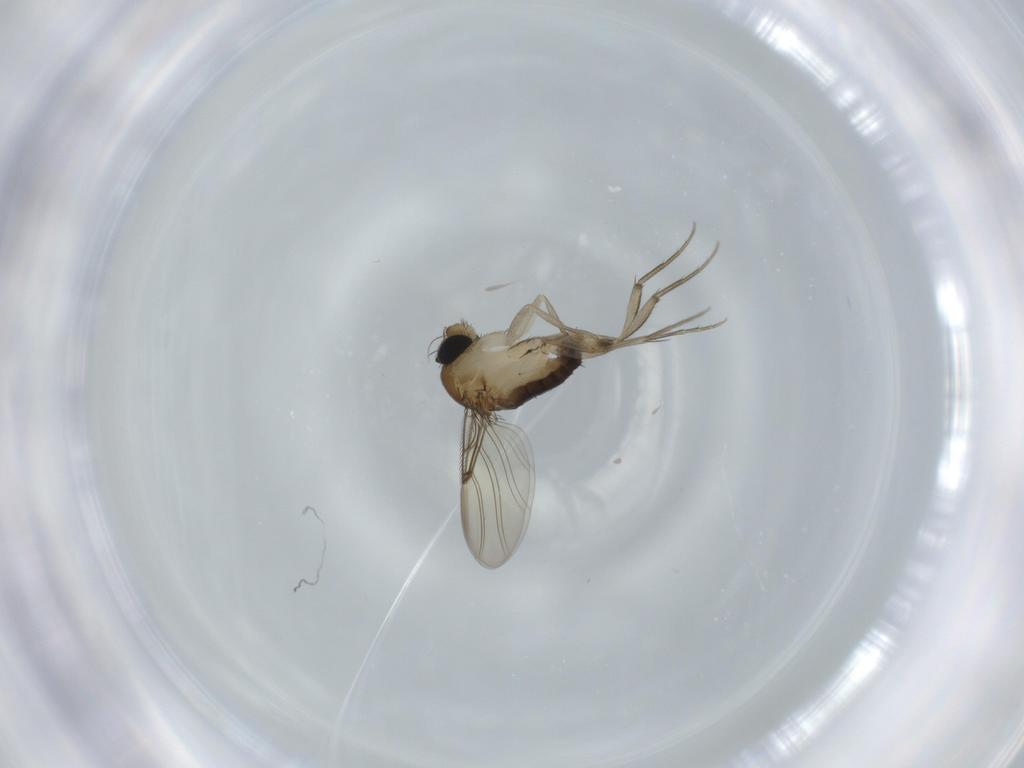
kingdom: Animalia
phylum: Arthropoda
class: Insecta
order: Diptera
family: Phoridae
